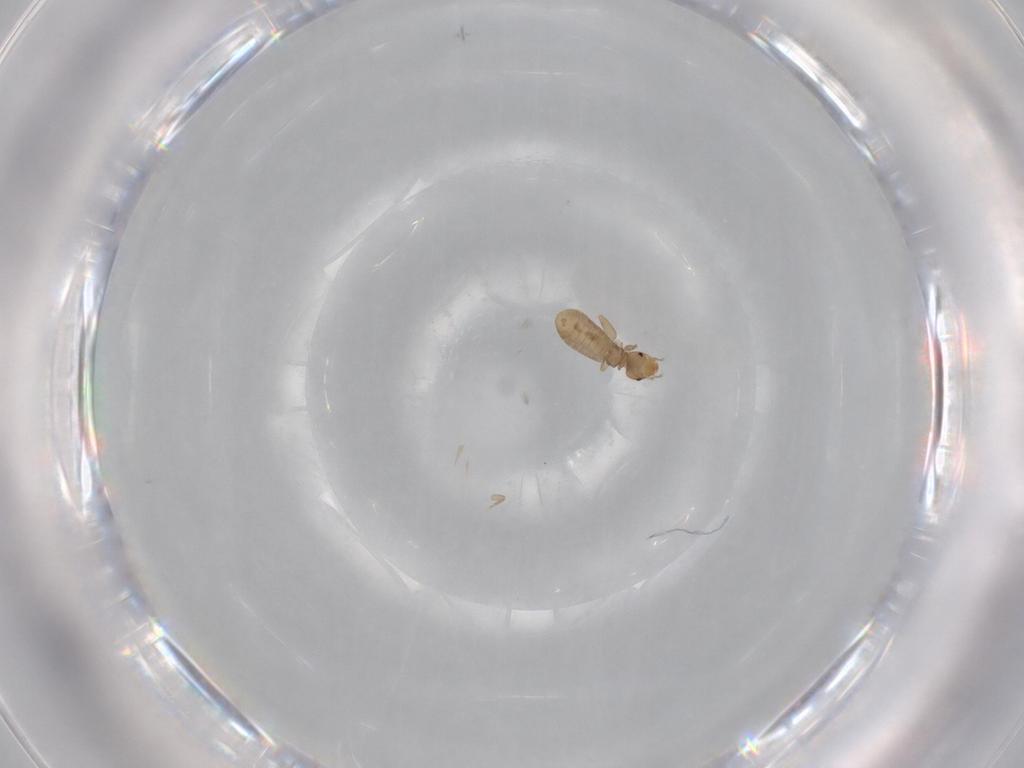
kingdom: Animalia
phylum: Arthropoda
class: Insecta
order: Psocodea
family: Liposcelididae
